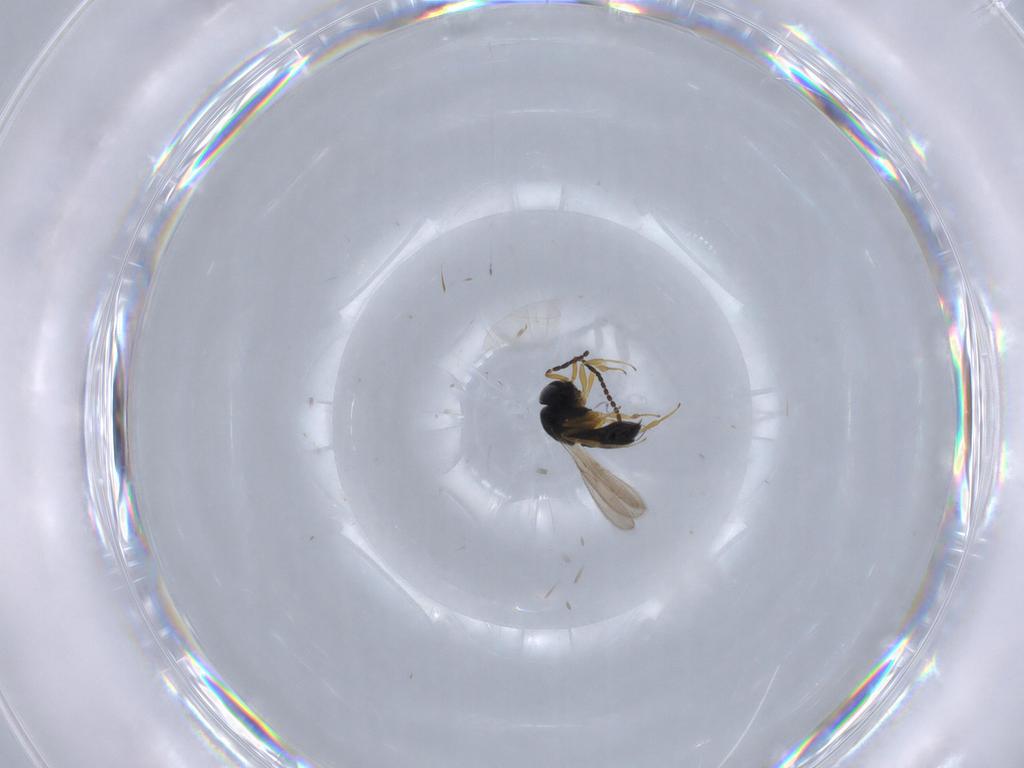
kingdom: Animalia
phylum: Arthropoda
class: Insecta
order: Hymenoptera
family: Scelionidae
